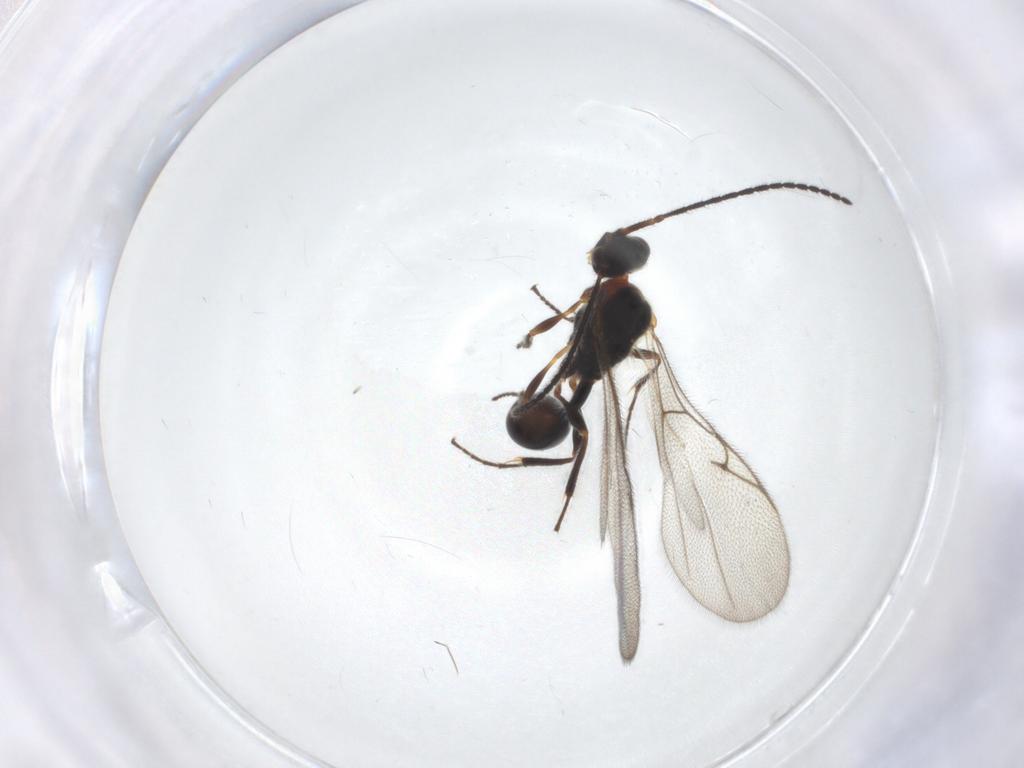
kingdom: Animalia
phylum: Arthropoda
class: Insecta
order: Hymenoptera
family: Diapriidae
